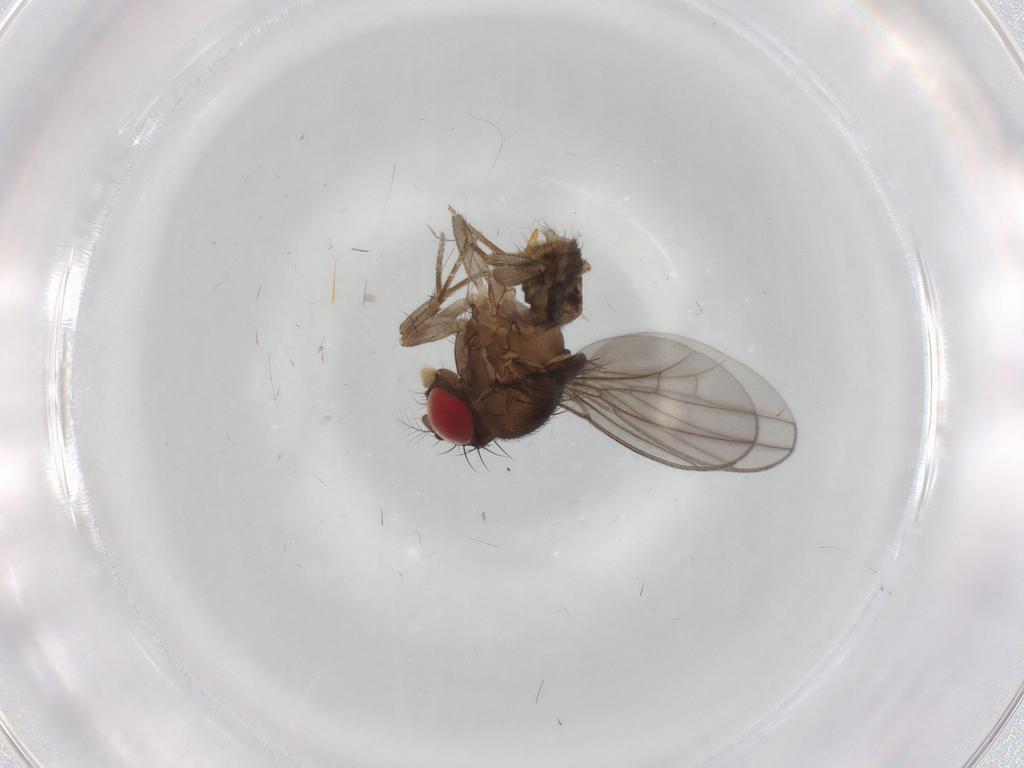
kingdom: Animalia
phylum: Arthropoda
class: Insecta
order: Diptera
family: Drosophilidae
